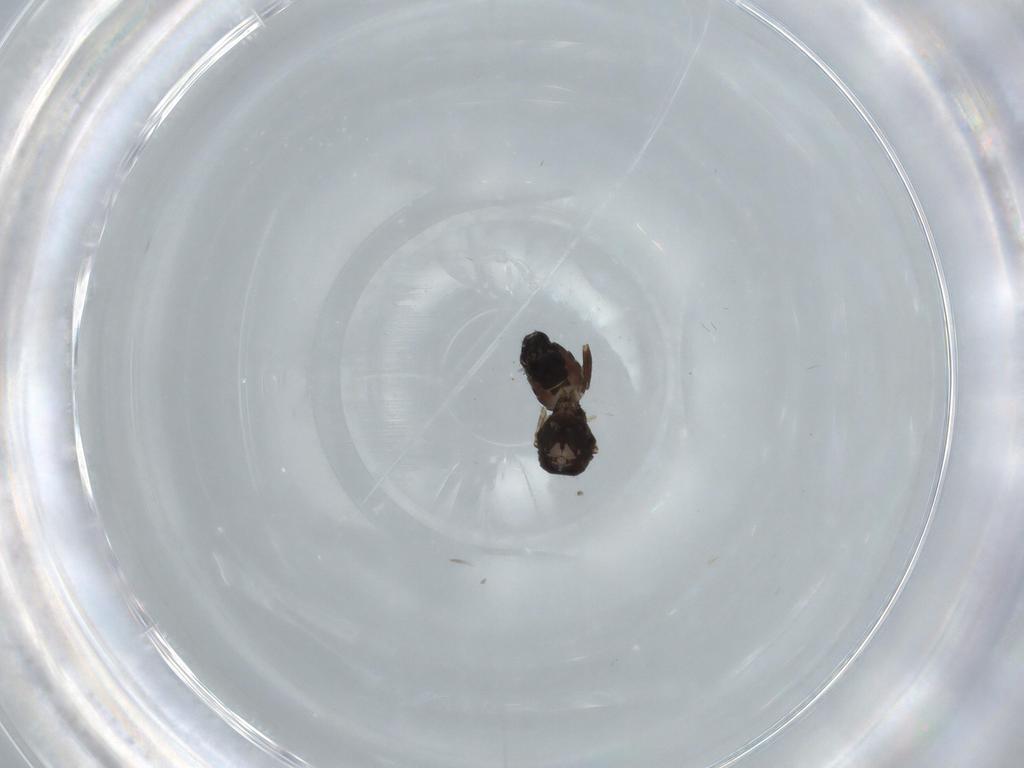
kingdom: Animalia
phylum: Arthropoda
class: Insecta
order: Diptera
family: Sphaeroceridae
